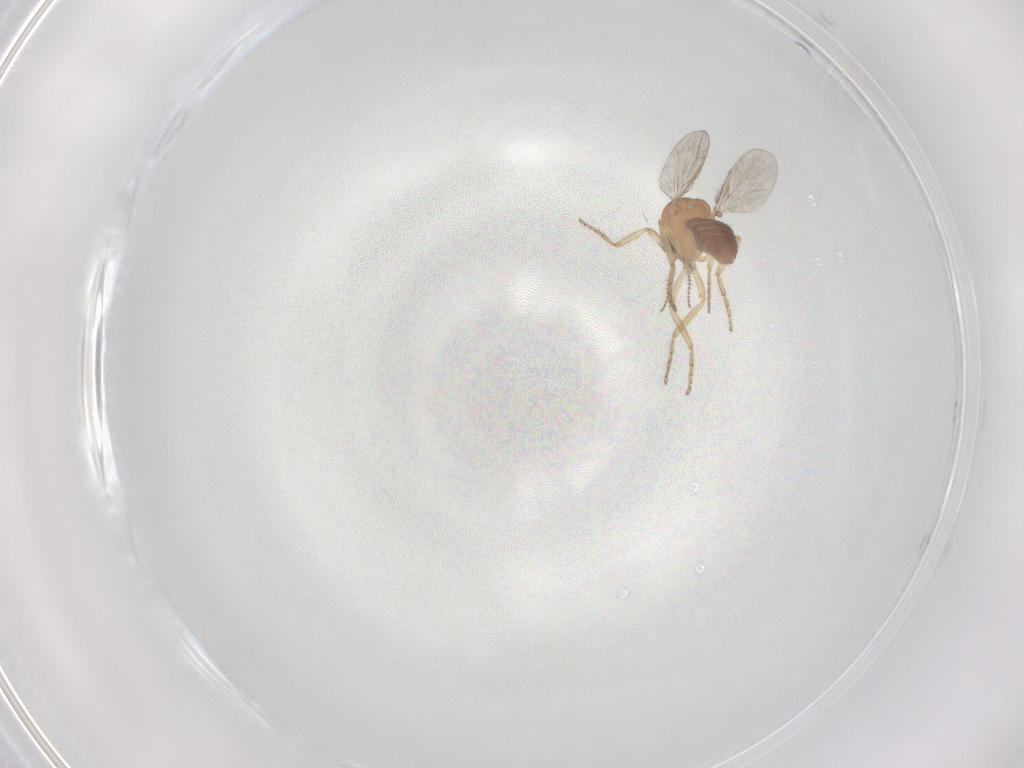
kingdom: Animalia
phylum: Arthropoda
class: Insecta
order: Diptera
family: Ceratopogonidae
